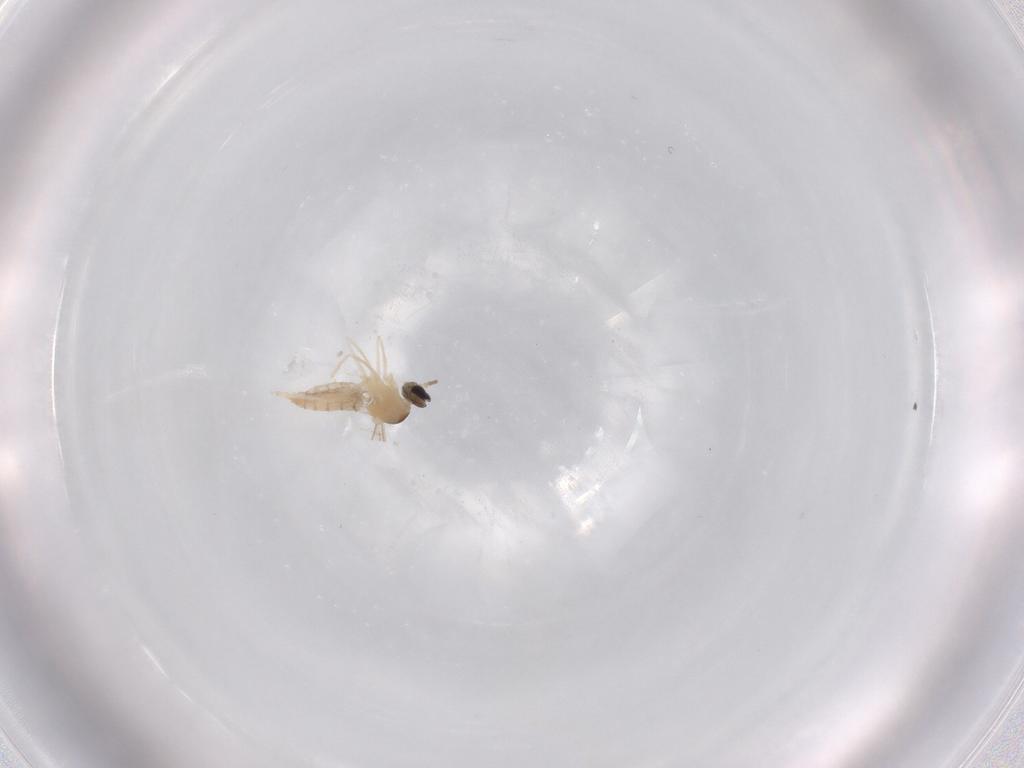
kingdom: Animalia
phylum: Arthropoda
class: Insecta
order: Diptera
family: Cecidomyiidae
